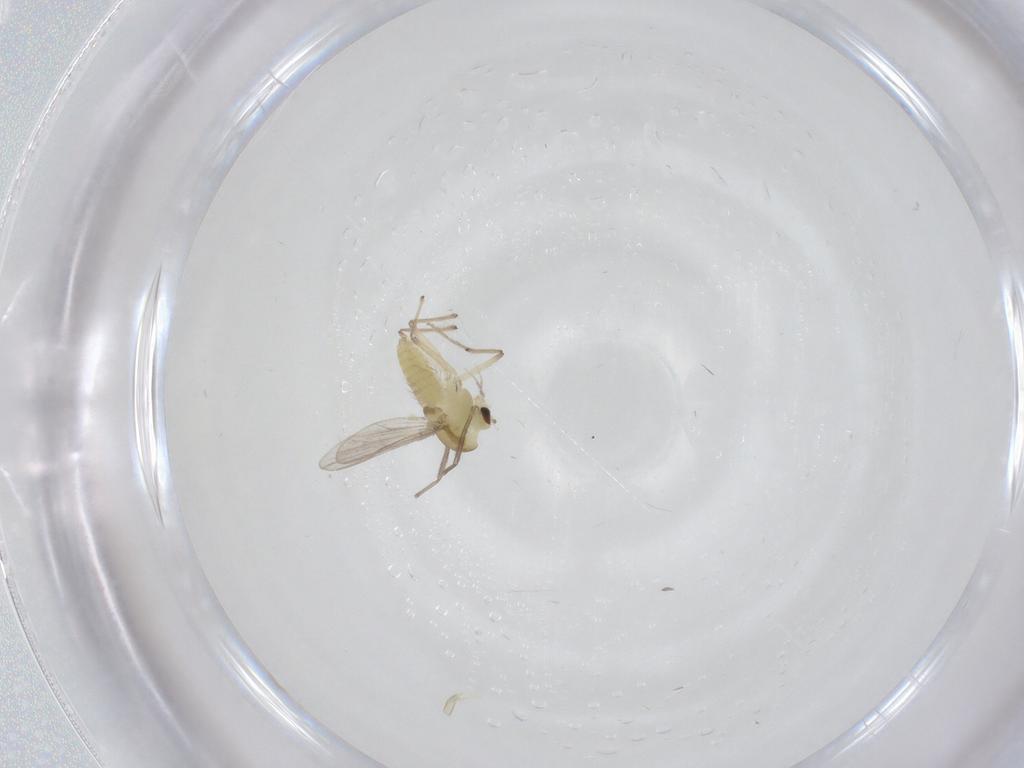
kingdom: Animalia
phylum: Arthropoda
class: Insecta
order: Diptera
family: Chironomidae
